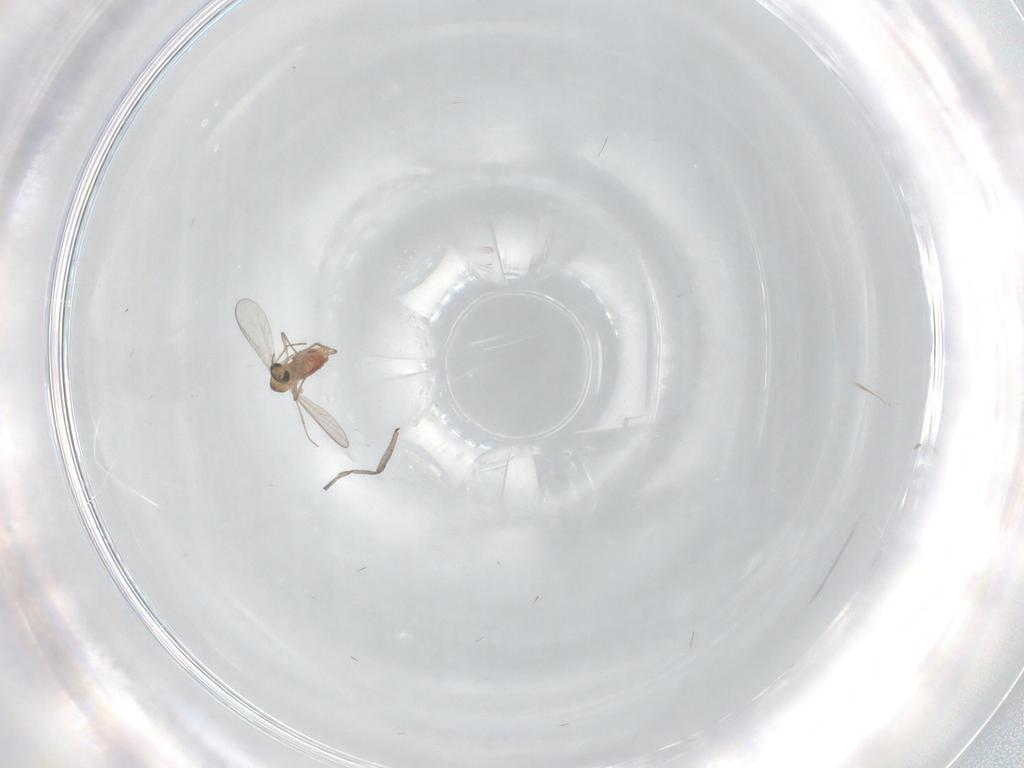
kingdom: Animalia
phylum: Arthropoda
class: Insecta
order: Diptera
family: Chironomidae
